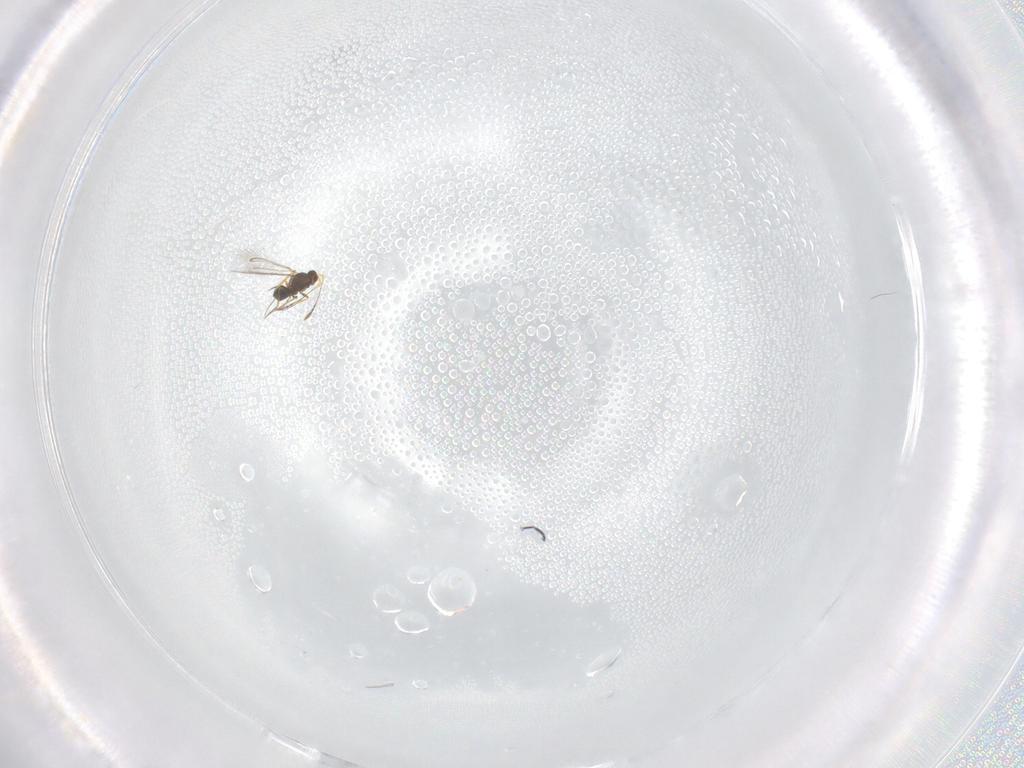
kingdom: Animalia
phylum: Arthropoda
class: Insecta
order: Hymenoptera
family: Mymaridae
